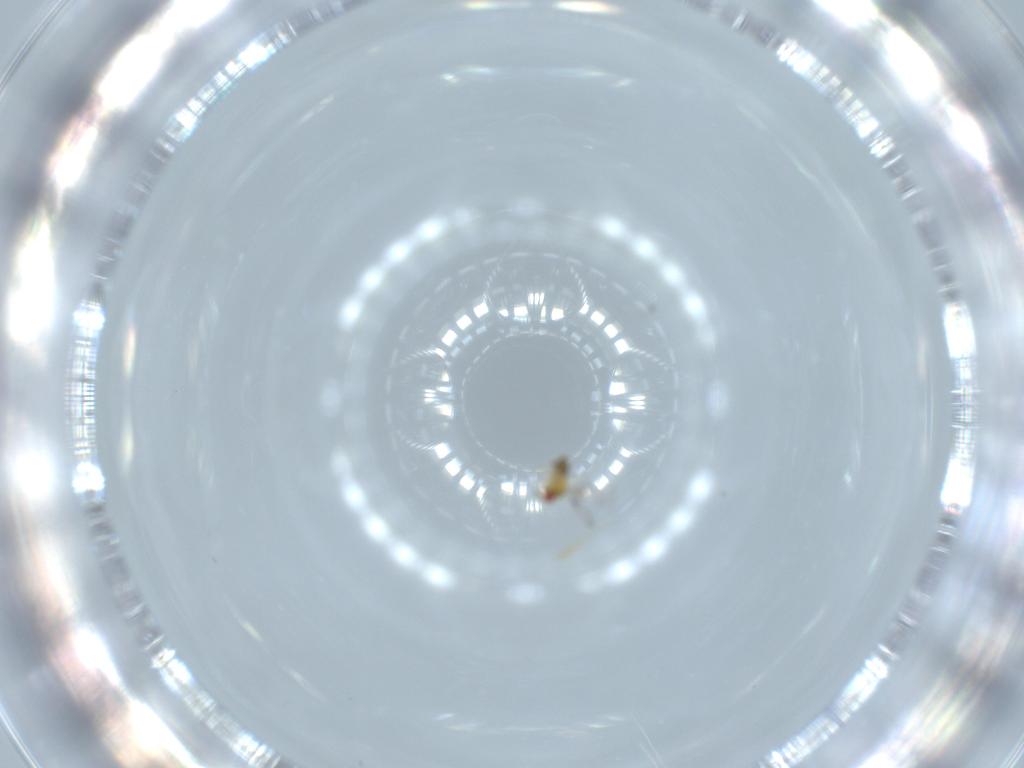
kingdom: Animalia
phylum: Arthropoda
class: Insecta
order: Hymenoptera
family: Trichogrammatidae
